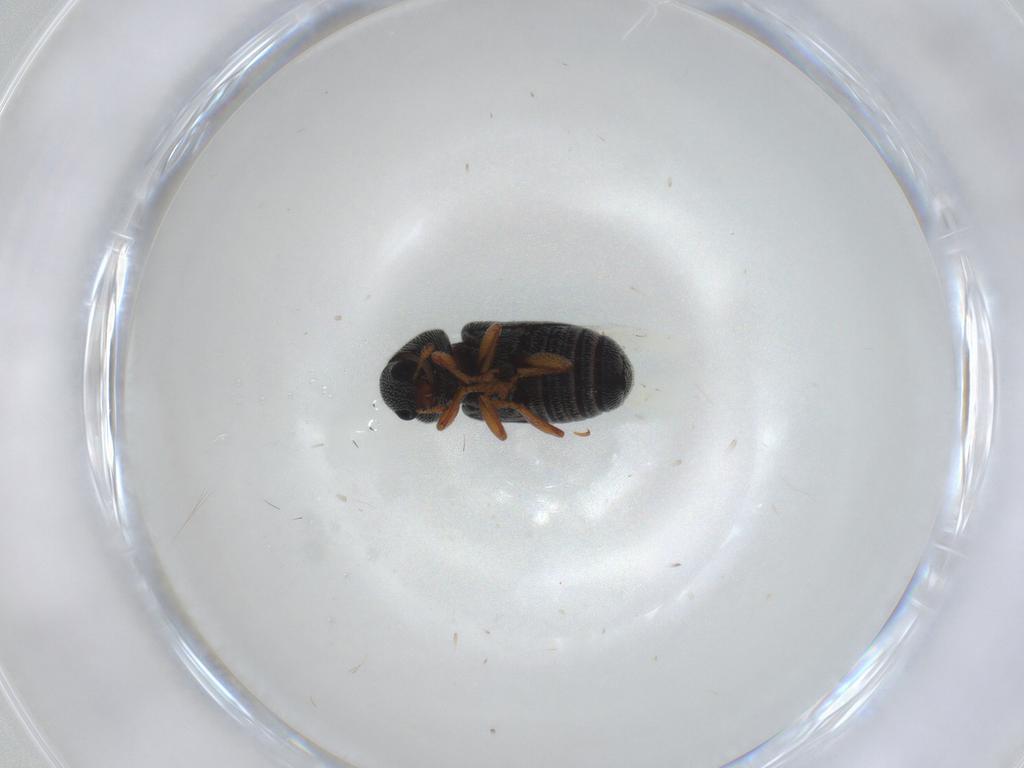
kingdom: Animalia
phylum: Arthropoda
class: Insecta
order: Coleoptera
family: Anthribidae
